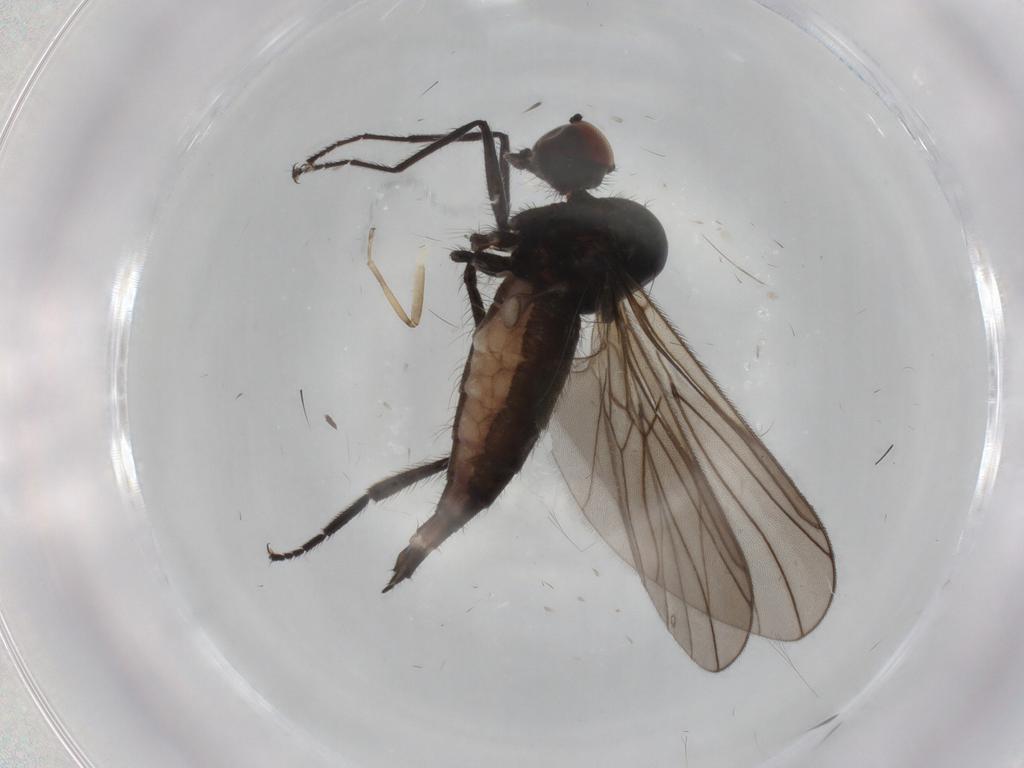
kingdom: Animalia
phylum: Arthropoda
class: Insecta
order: Diptera
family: Hybotidae
